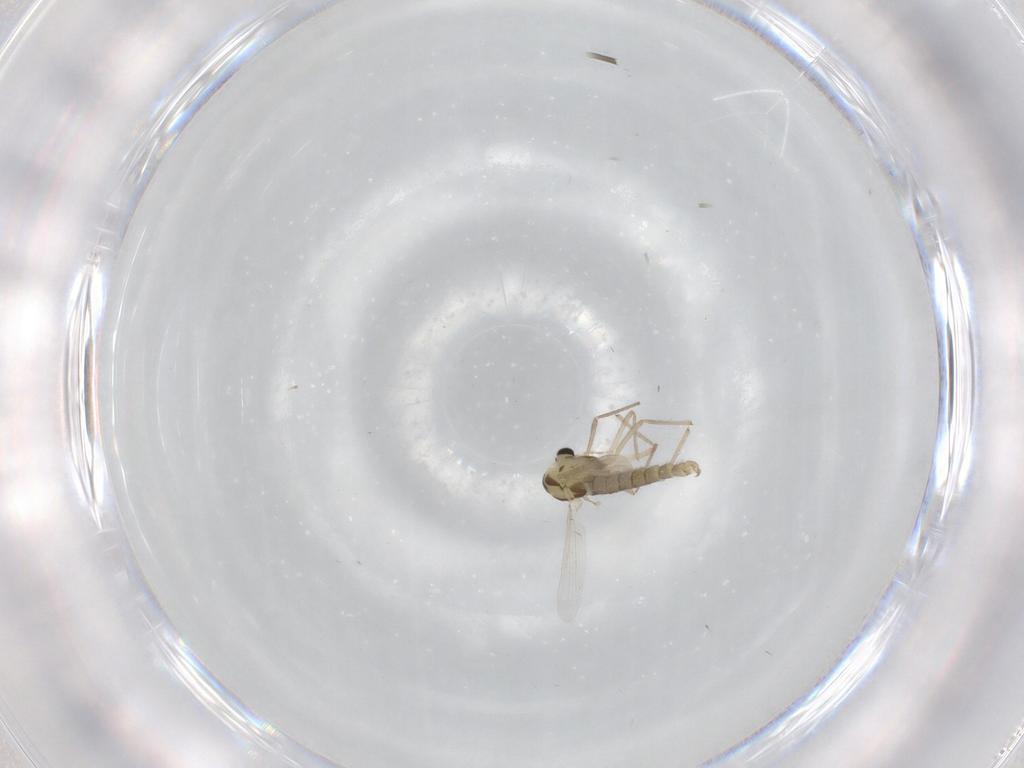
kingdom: Animalia
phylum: Arthropoda
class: Insecta
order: Diptera
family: Chironomidae
